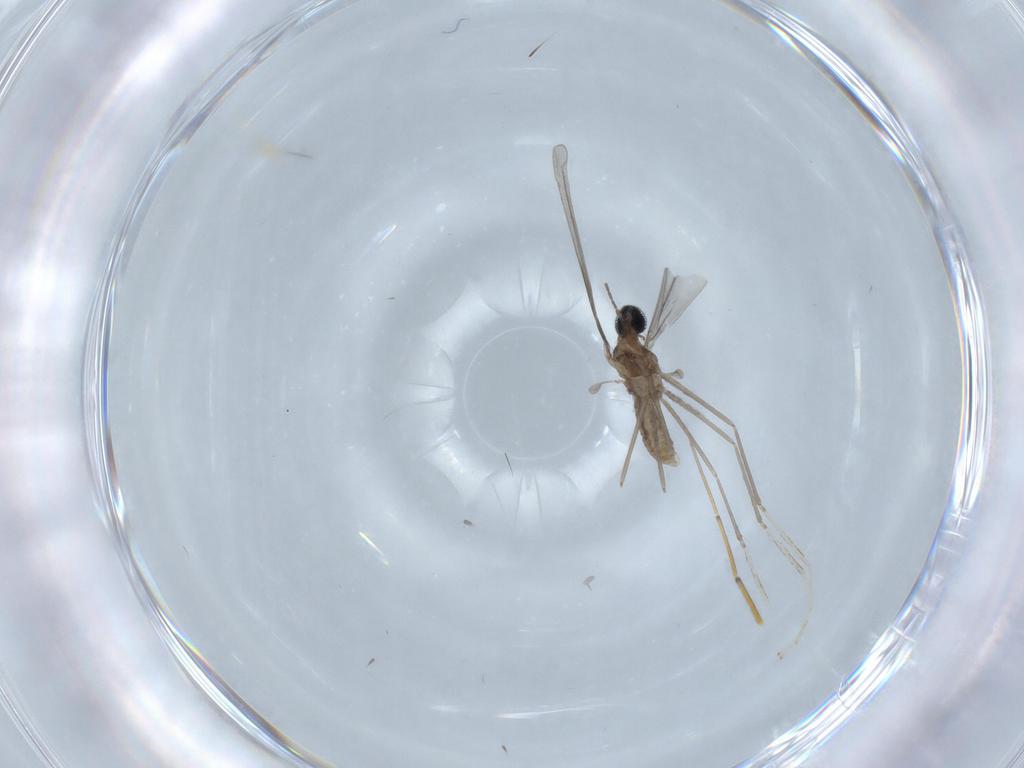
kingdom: Animalia
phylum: Arthropoda
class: Insecta
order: Diptera
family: Cecidomyiidae
